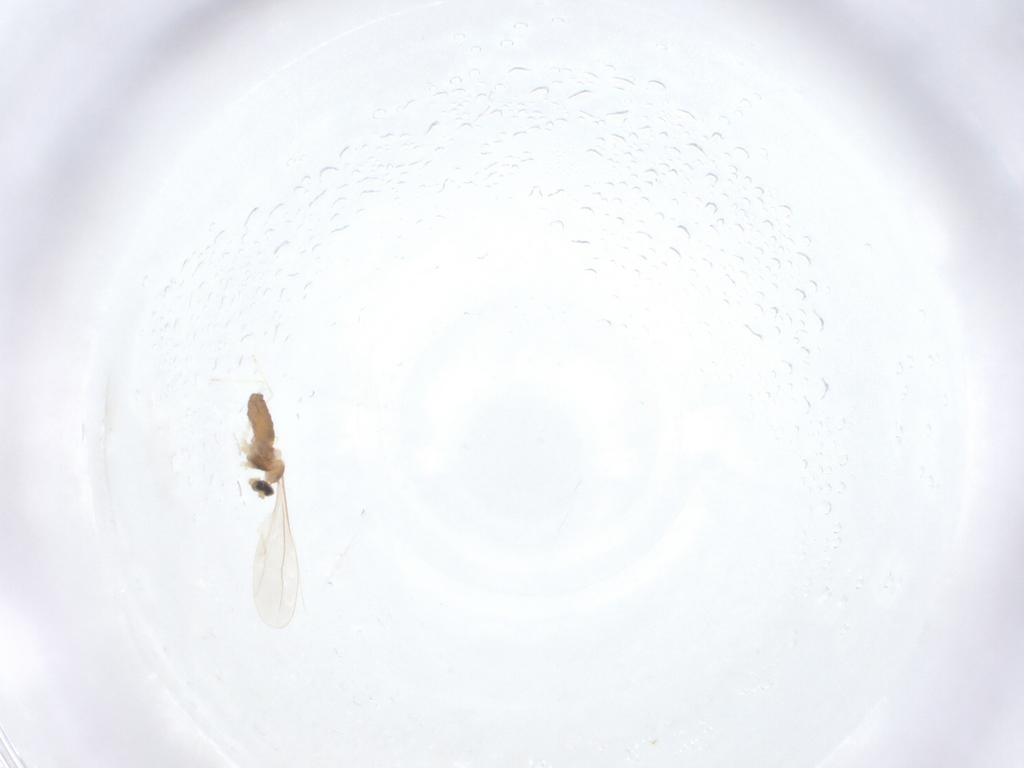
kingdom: Animalia
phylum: Arthropoda
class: Insecta
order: Diptera
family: Cecidomyiidae
